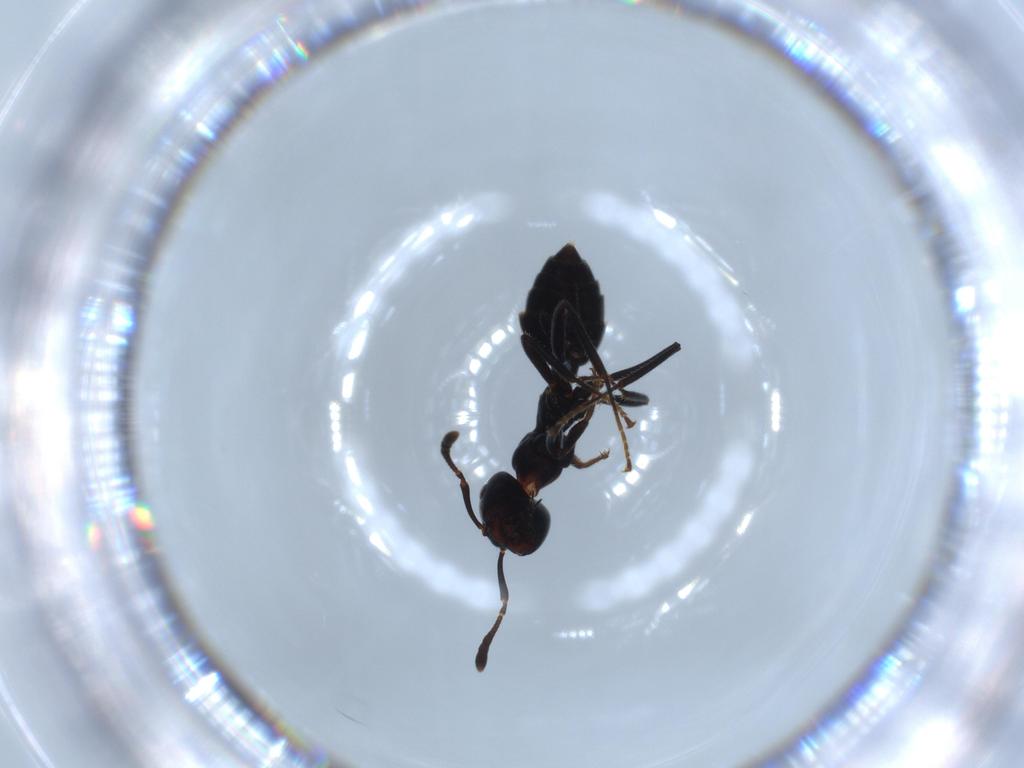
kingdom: Animalia
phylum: Arthropoda
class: Insecta
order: Hymenoptera
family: Formicidae
